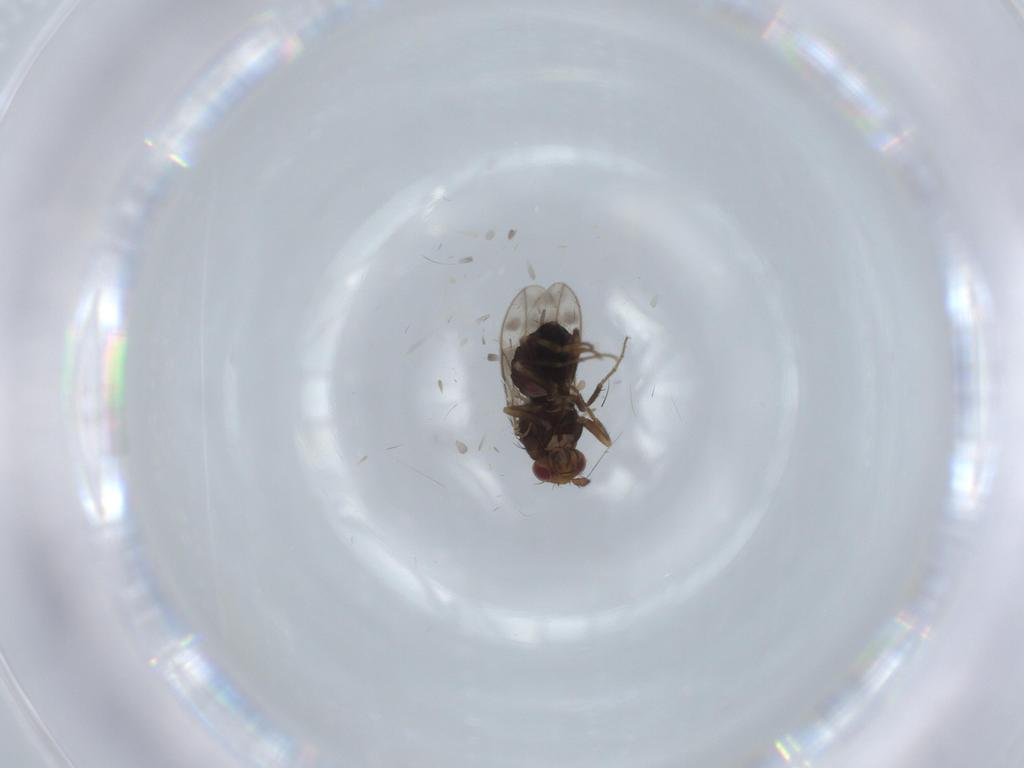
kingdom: Animalia
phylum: Arthropoda
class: Insecta
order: Diptera
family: Sphaeroceridae
